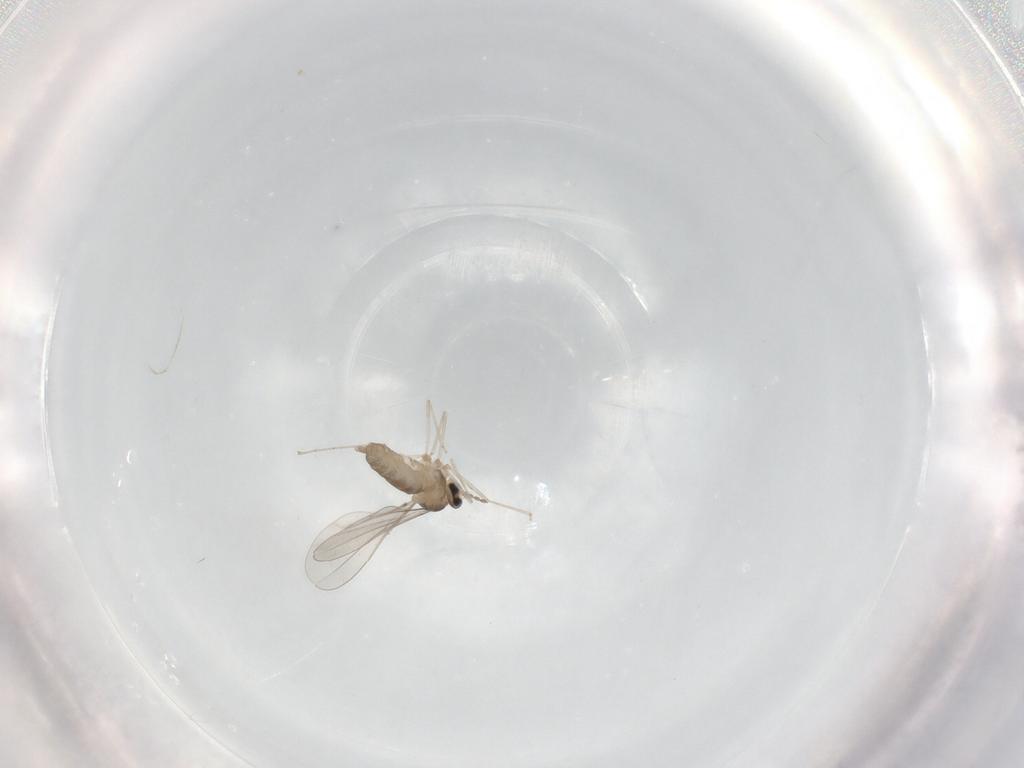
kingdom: Animalia
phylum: Arthropoda
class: Insecta
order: Diptera
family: Cecidomyiidae
